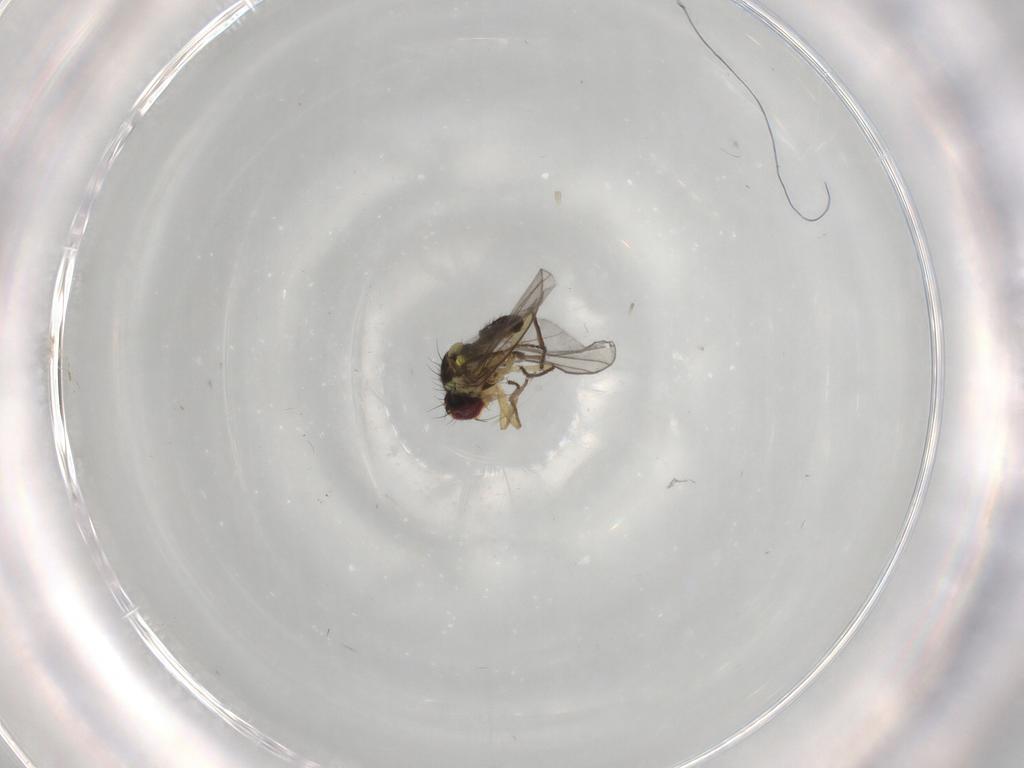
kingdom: Animalia
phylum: Arthropoda
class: Insecta
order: Diptera
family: Agromyzidae
